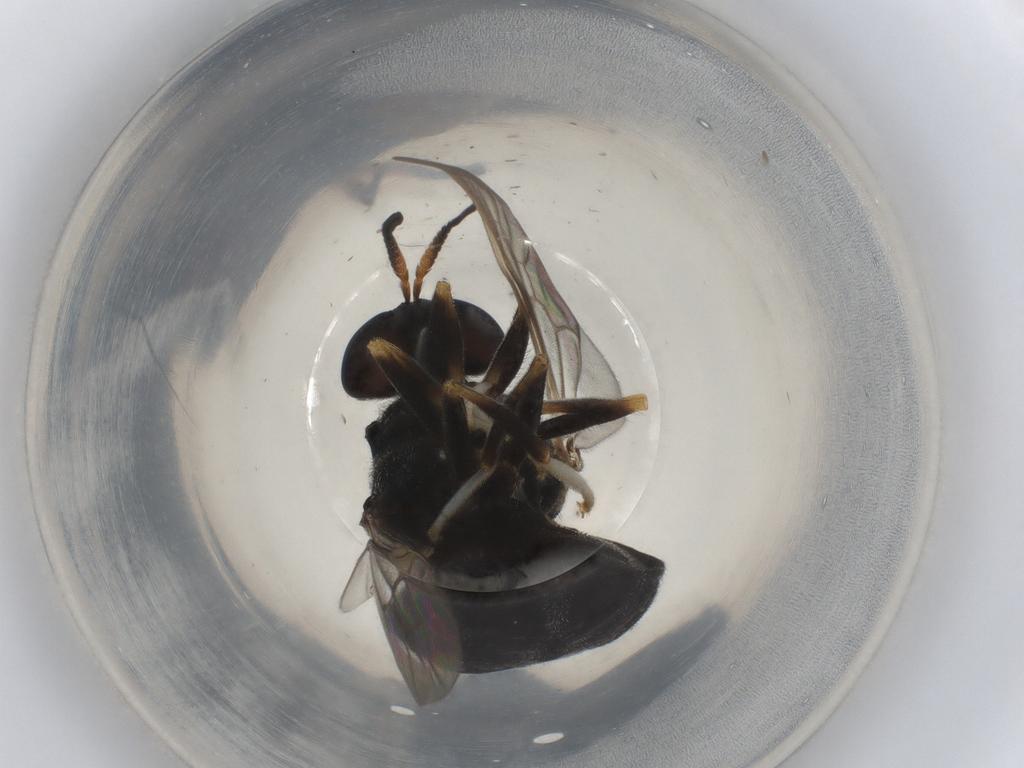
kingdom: Animalia
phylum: Arthropoda
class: Insecta
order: Diptera
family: Stratiomyidae
